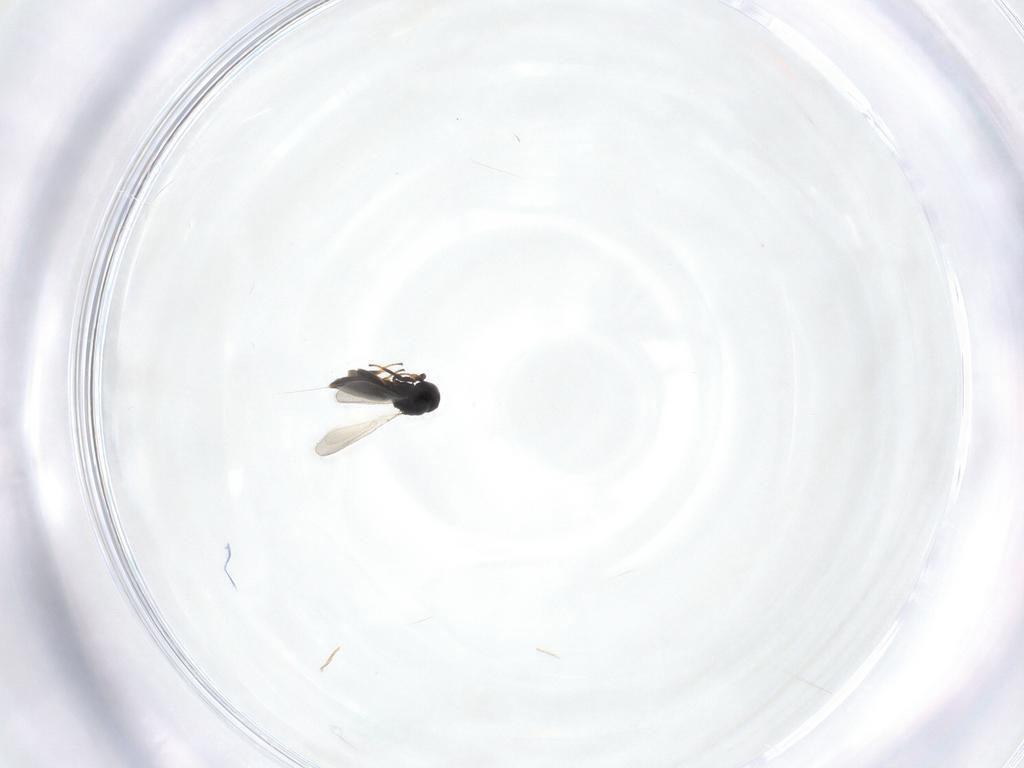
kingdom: Animalia
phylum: Arthropoda
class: Insecta
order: Hymenoptera
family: Platygastridae
